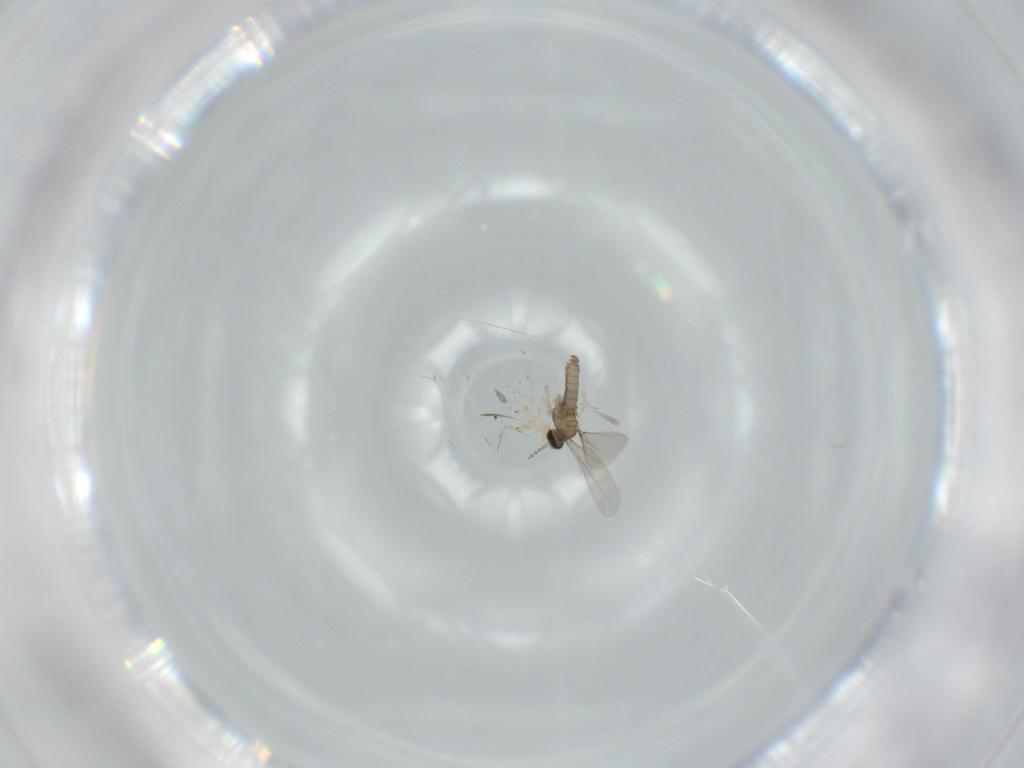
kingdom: Animalia
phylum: Arthropoda
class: Insecta
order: Diptera
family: Cecidomyiidae
